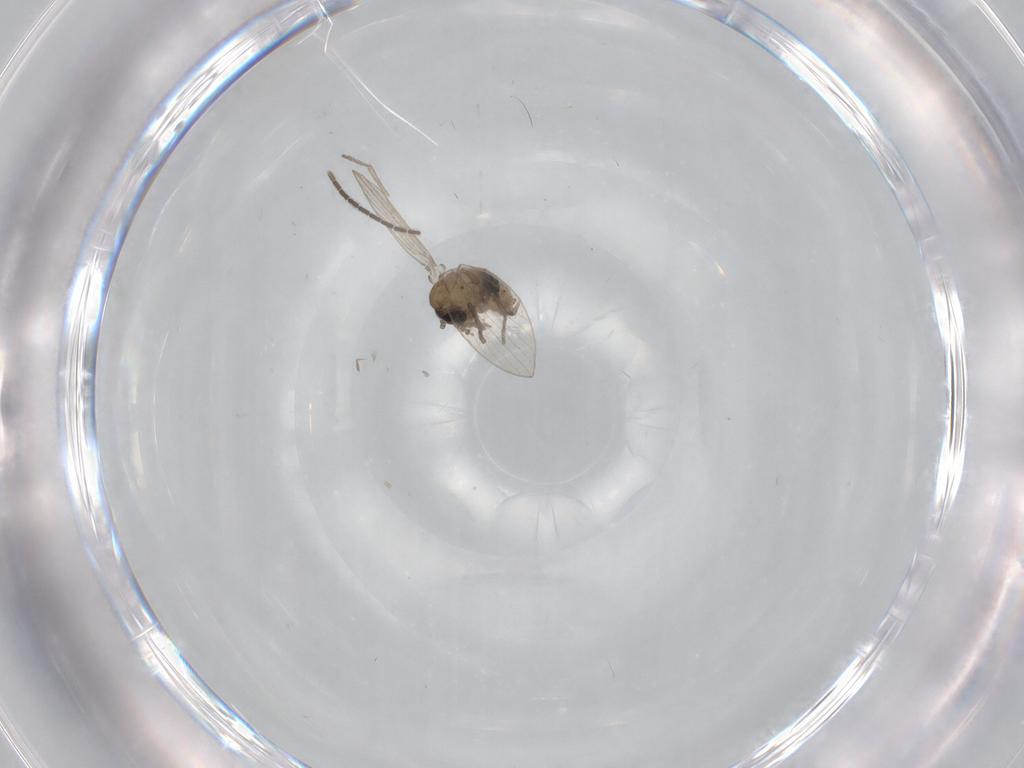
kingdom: Animalia
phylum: Arthropoda
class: Insecta
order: Diptera
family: Psychodidae
